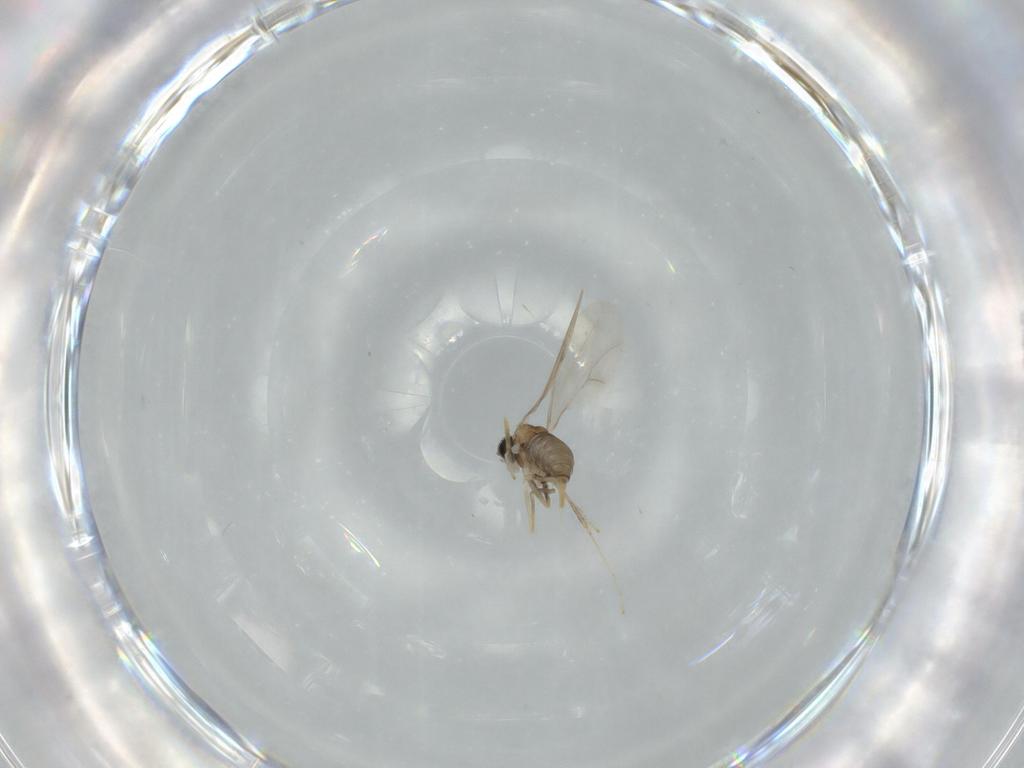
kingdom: Animalia
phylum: Arthropoda
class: Insecta
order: Diptera
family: Cecidomyiidae
